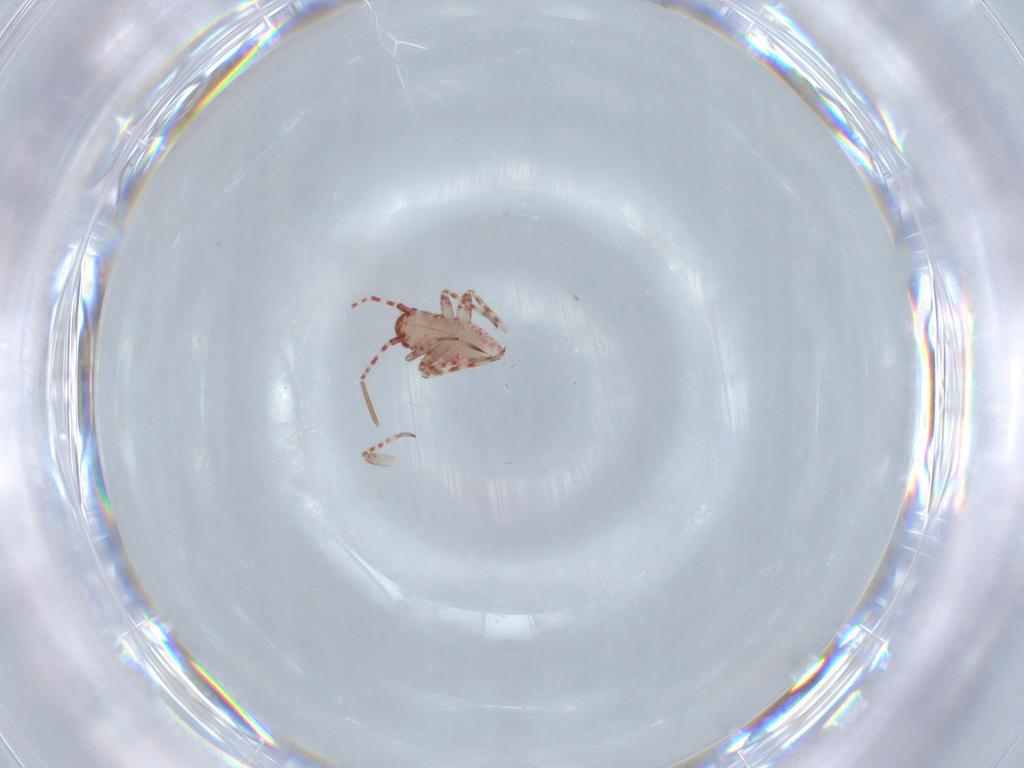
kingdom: Animalia
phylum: Arthropoda
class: Insecta
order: Hemiptera
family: Miridae
